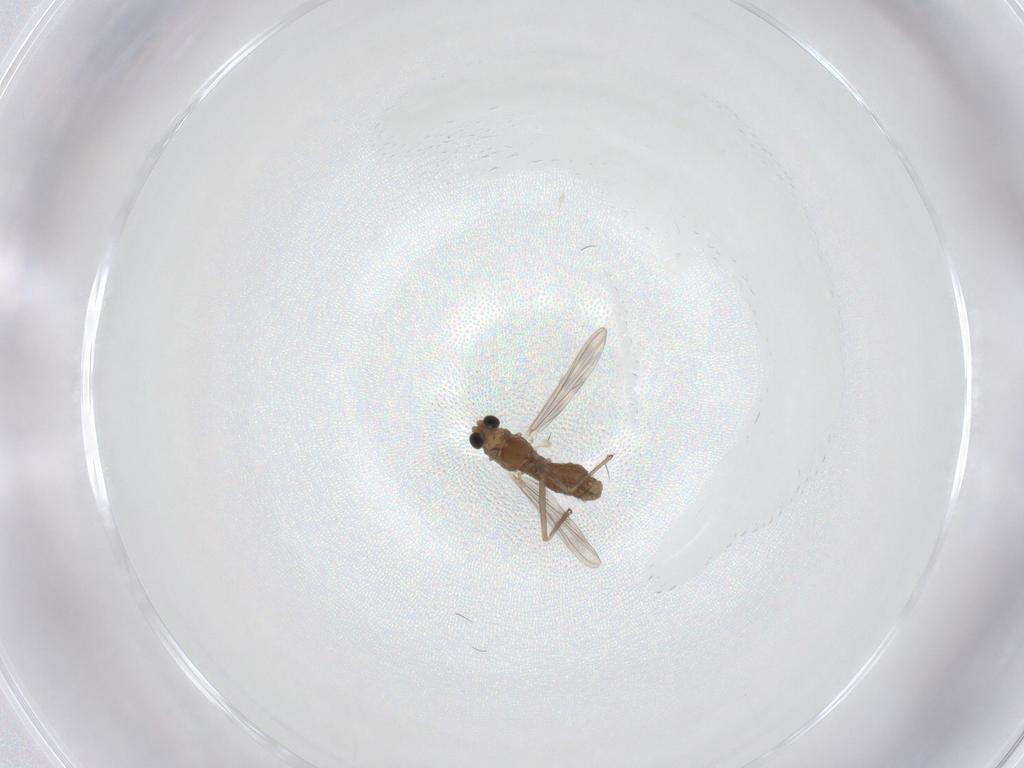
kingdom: Animalia
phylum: Arthropoda
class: Insecta
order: Diptera
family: Chironomidae
